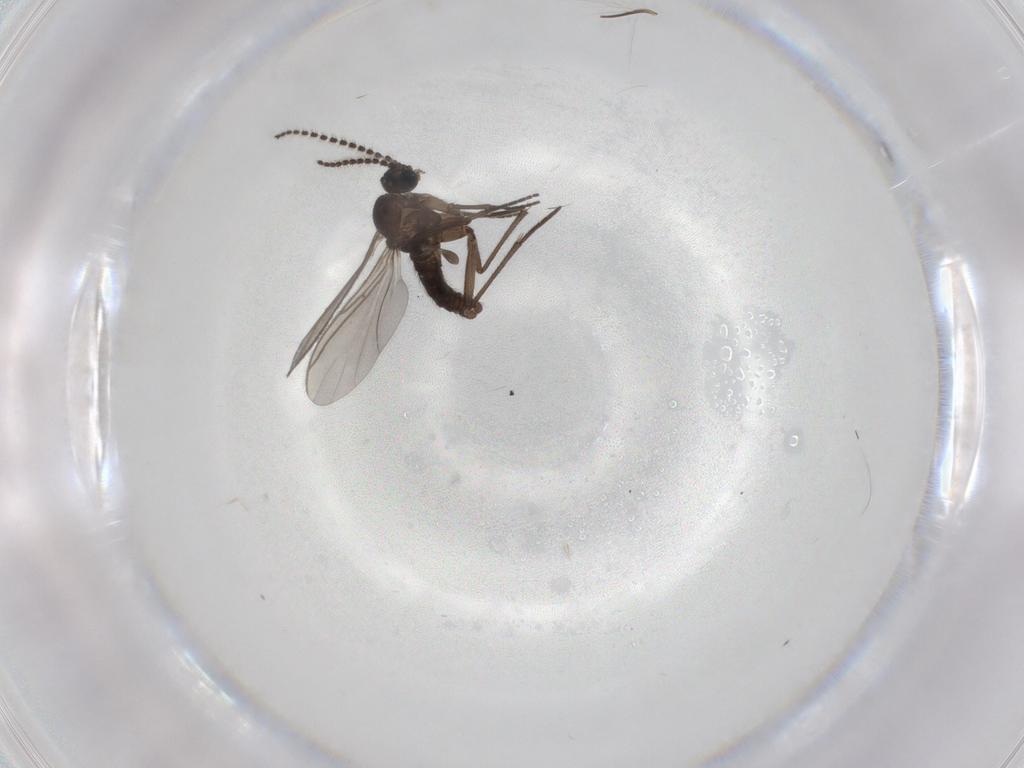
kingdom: Animalia
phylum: Arthropoda
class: Insecta
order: Diptera
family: Sciaridae
